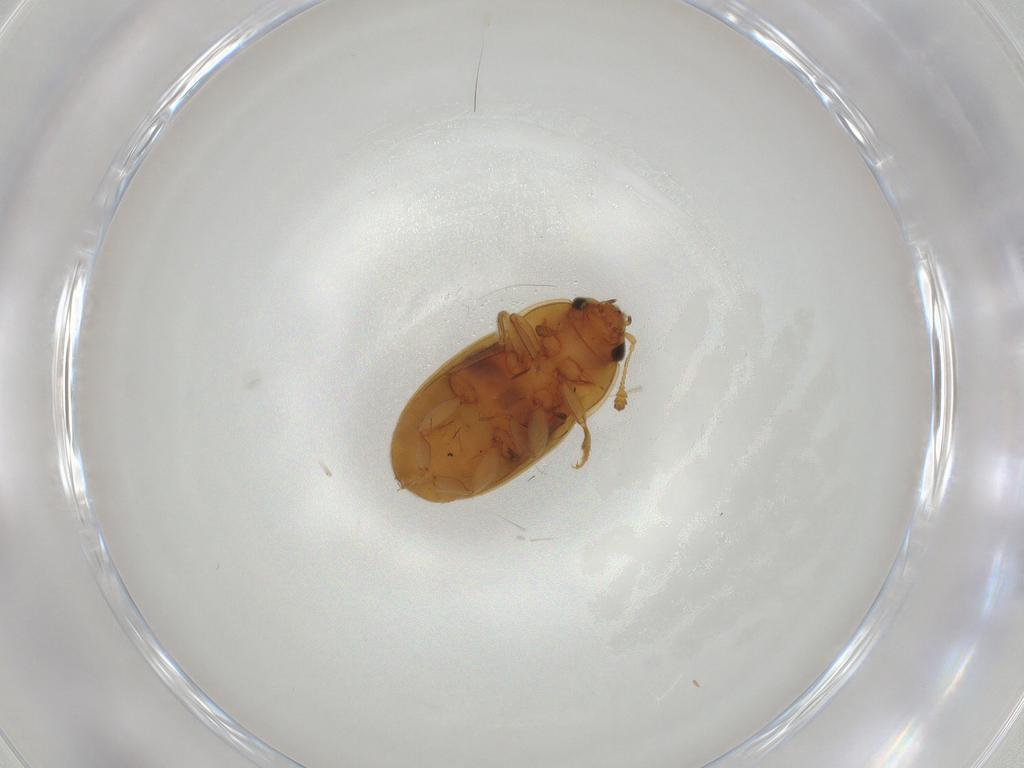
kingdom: Animalia
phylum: Arthropoda
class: Insecta
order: Coleoptera
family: Nitidulidae
